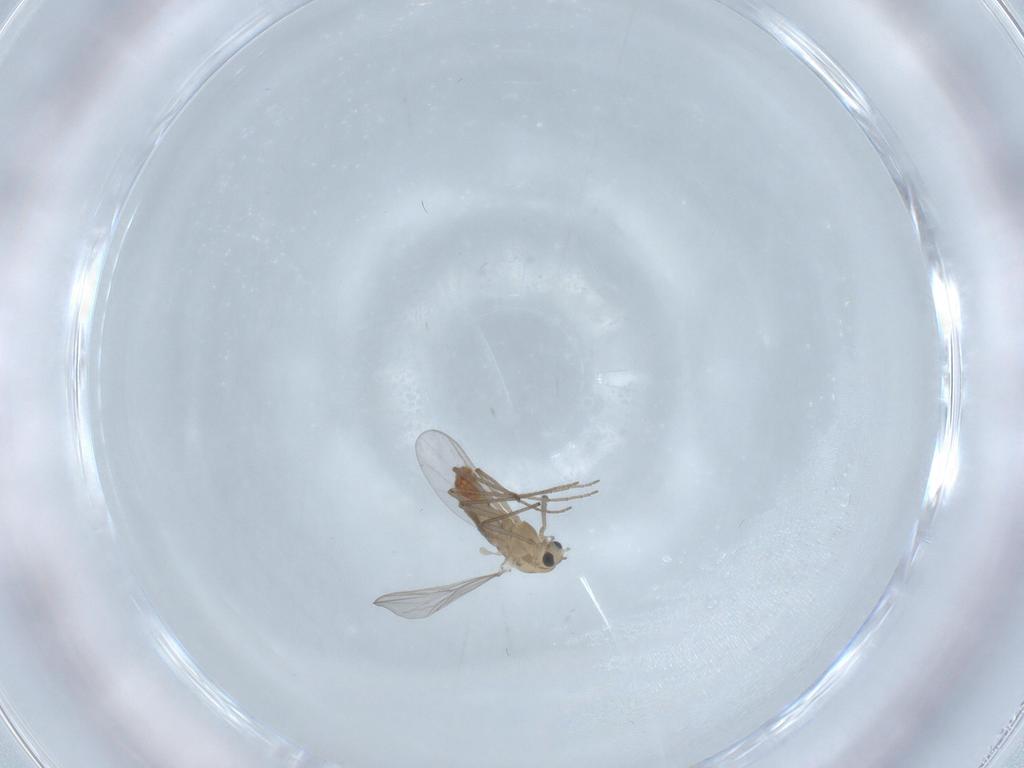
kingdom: Animalia
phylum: Arthropoda
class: Insecta
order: Diptera
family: Chironomidae
